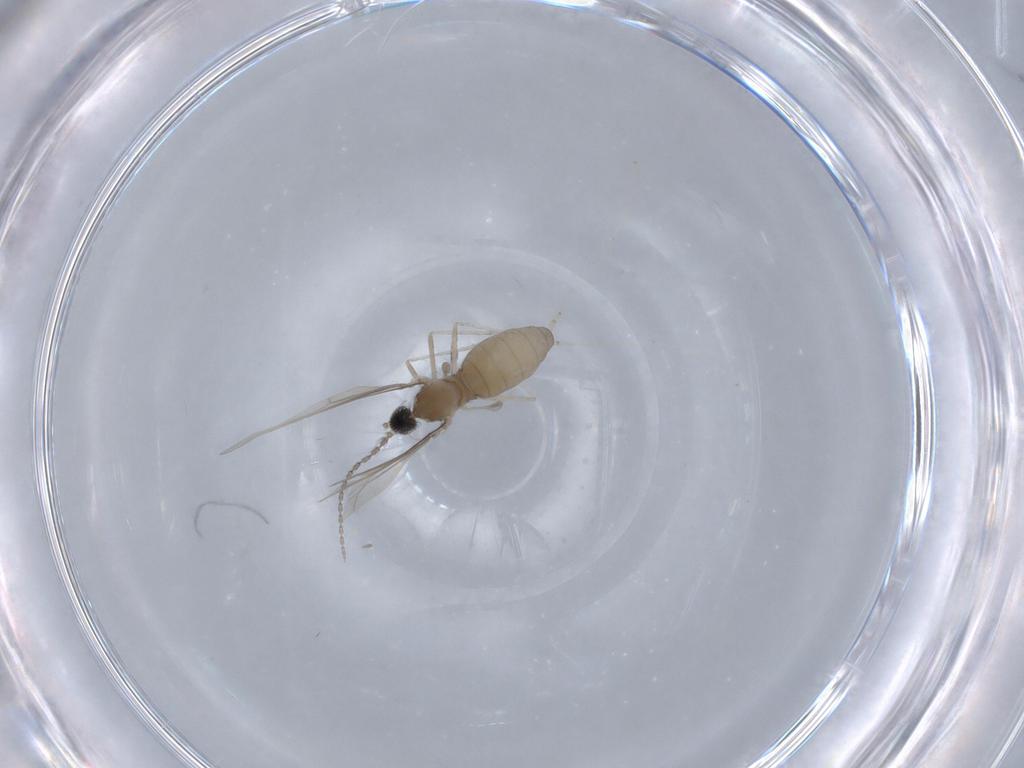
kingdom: Animalia
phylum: Arthropoda
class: Insecta
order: Diptera
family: Cecidomyiidae
